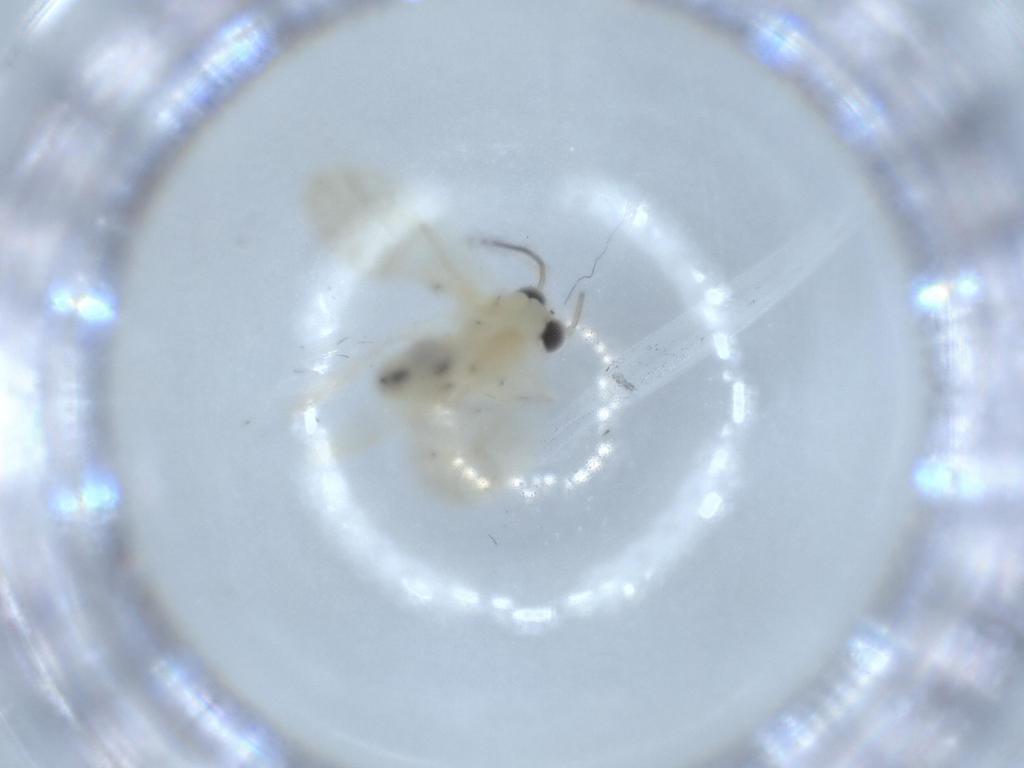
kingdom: Animalia
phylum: Arthropoda
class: Insecta
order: Psocodea
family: Caeciliusidae
